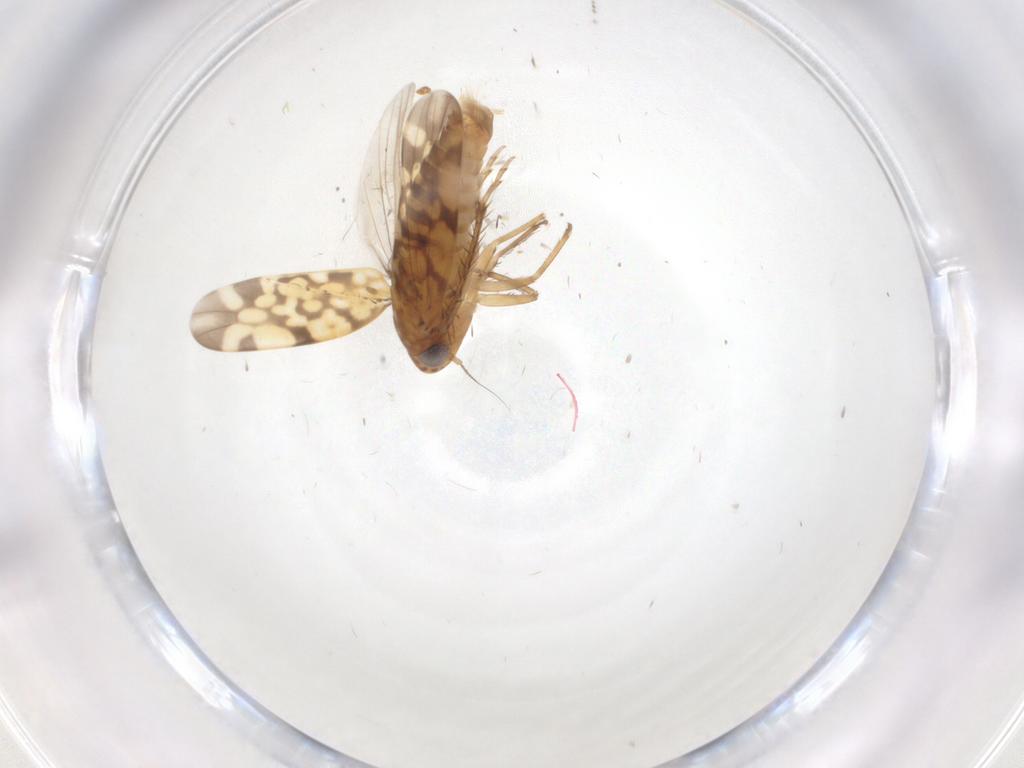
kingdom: Animalia
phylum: Arthropoda
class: Insecta
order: Hemiptera
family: Cicadellidae
